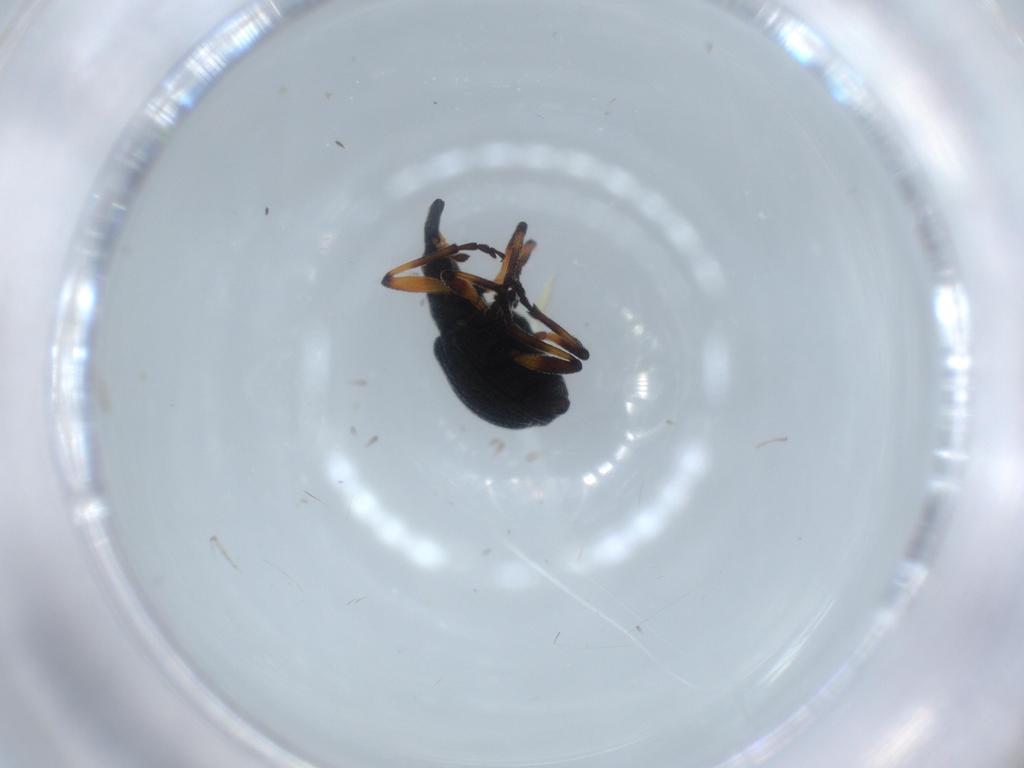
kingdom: Animalia
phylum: Arthropoda
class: Insecta
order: Coleoptera
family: Brentidae
